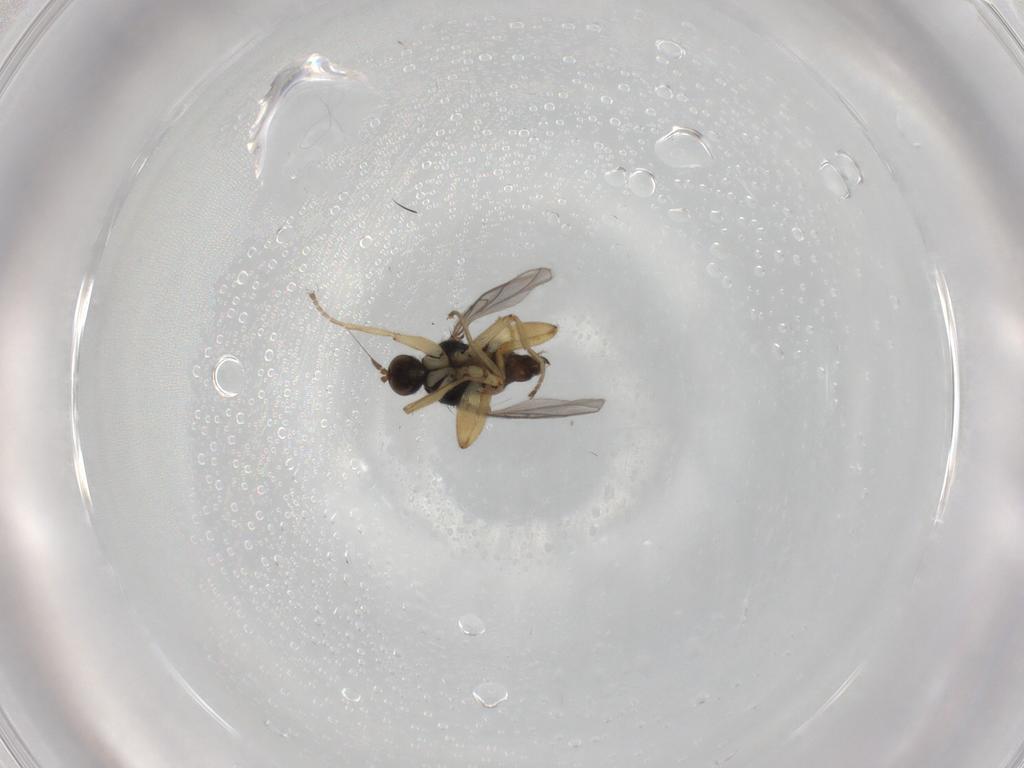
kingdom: Animalia
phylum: Arthropoda
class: Insecta
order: Diptera
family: Hybotidae
